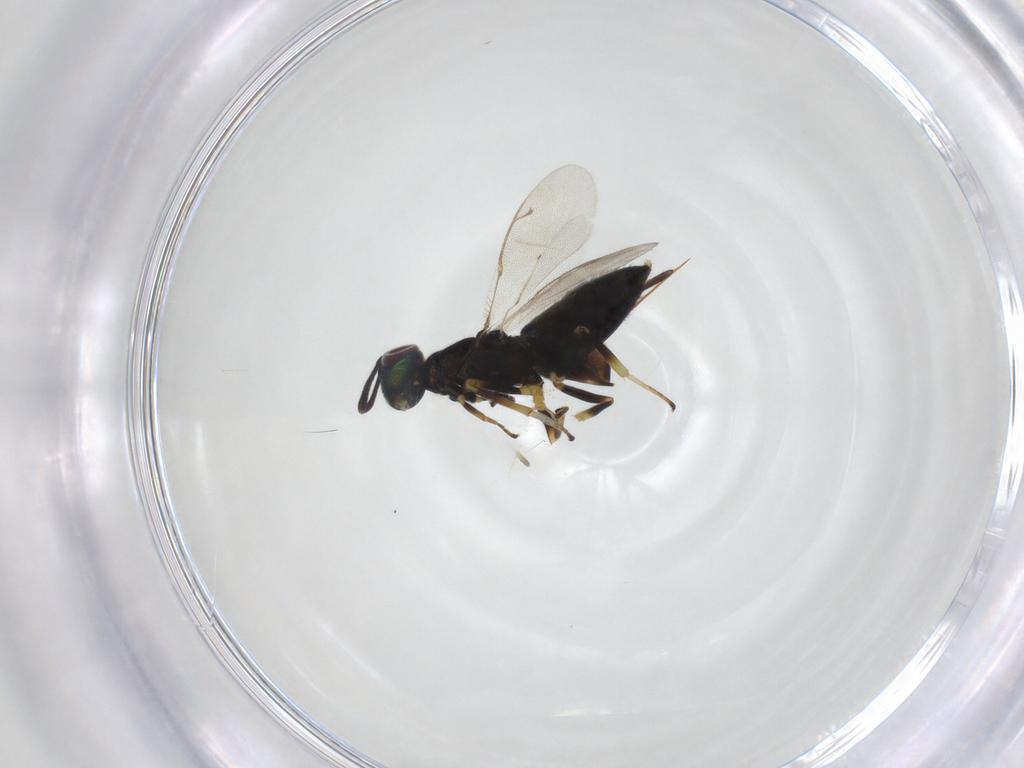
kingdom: Animalia
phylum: Arthropoda
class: Insecta
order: Hymenoptera
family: Eupelmidae
